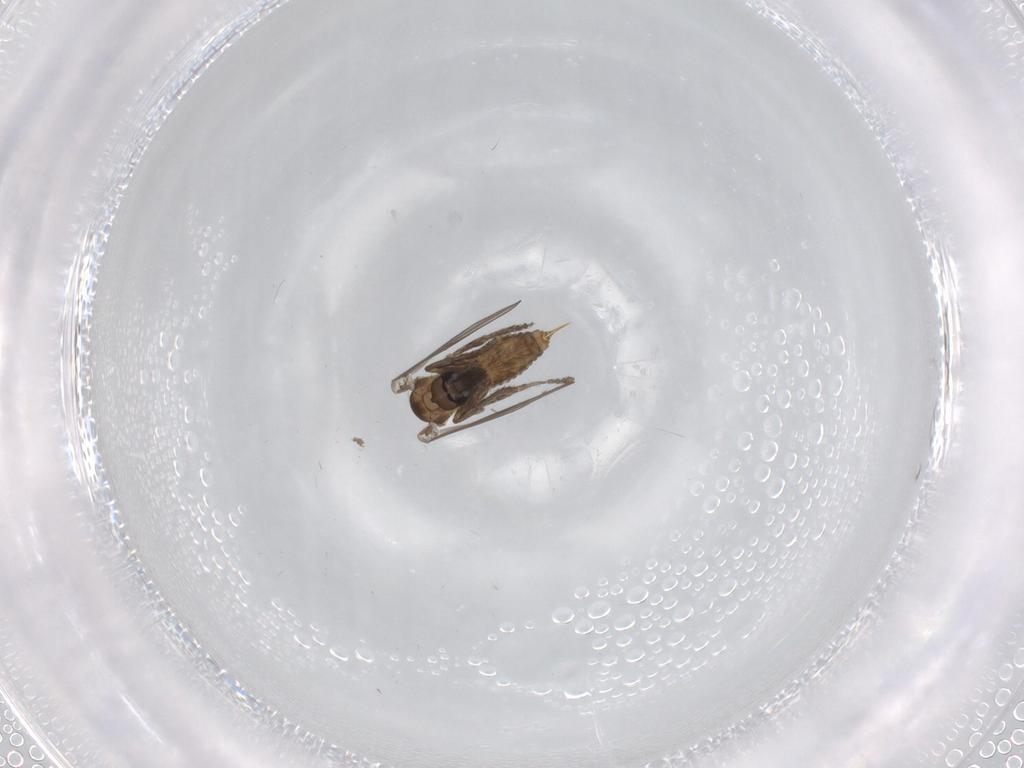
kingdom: Animalia
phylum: Arthropoda
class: Insecta
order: Diptera
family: Psychodidae
